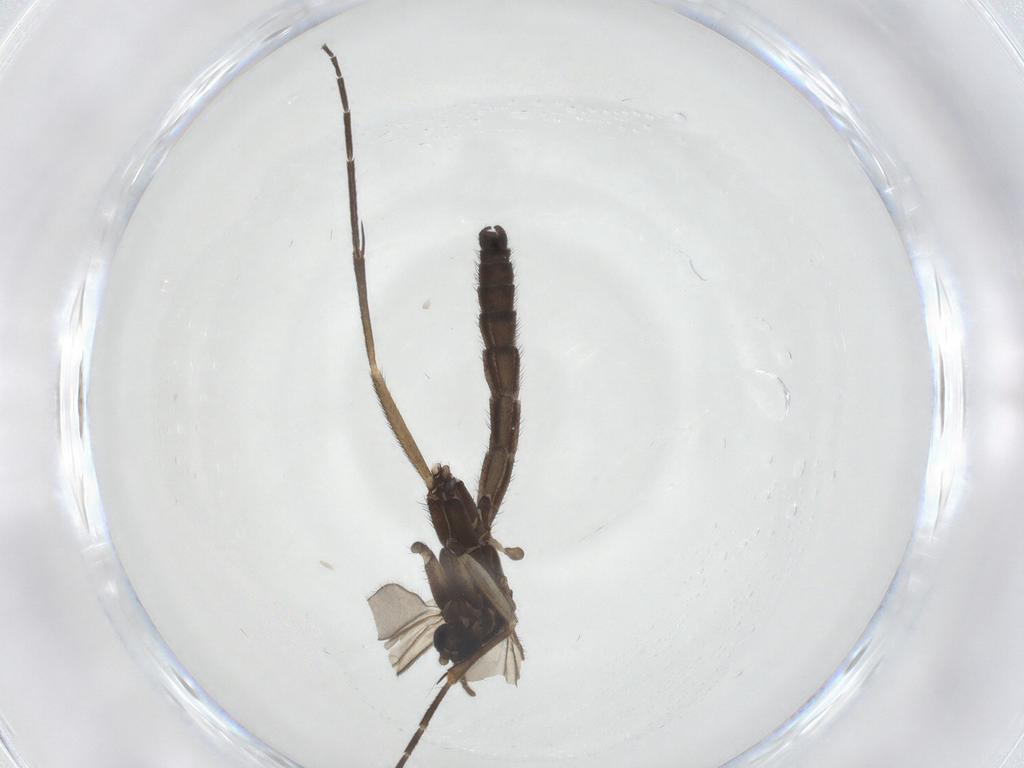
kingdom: Animalia
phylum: Arthropoda
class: Insecta
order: Diptera
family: Keroplatidae
